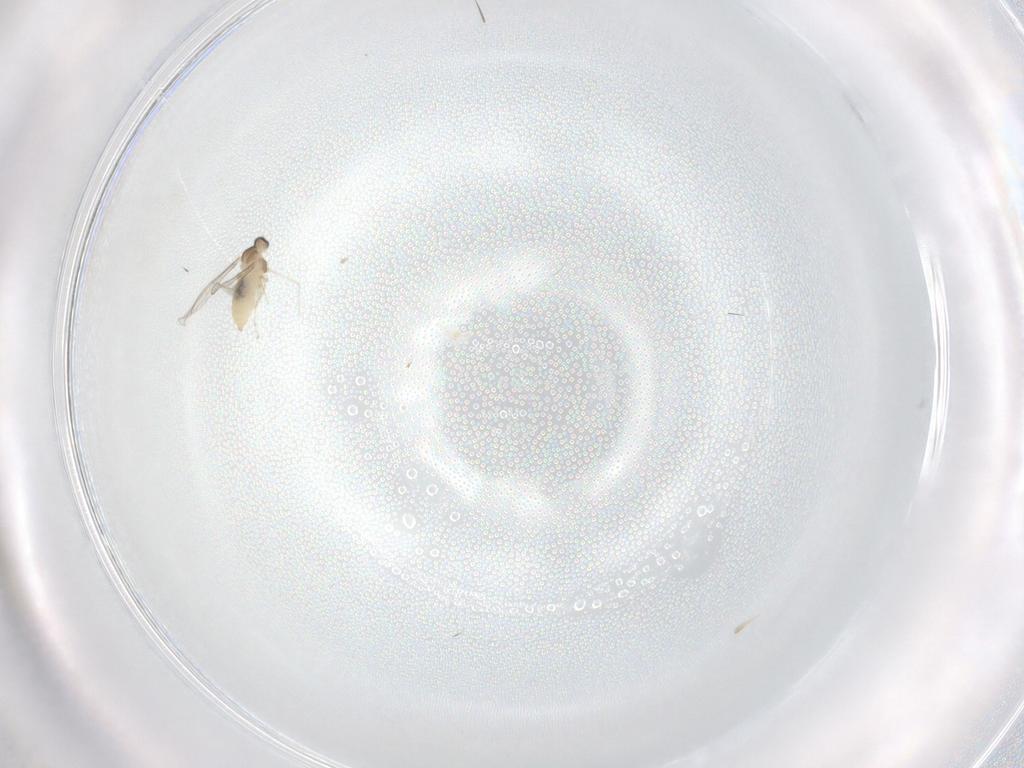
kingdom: Animalia
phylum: Arthropoda
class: Insecta
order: Diptera
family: Cecidomyiidae
